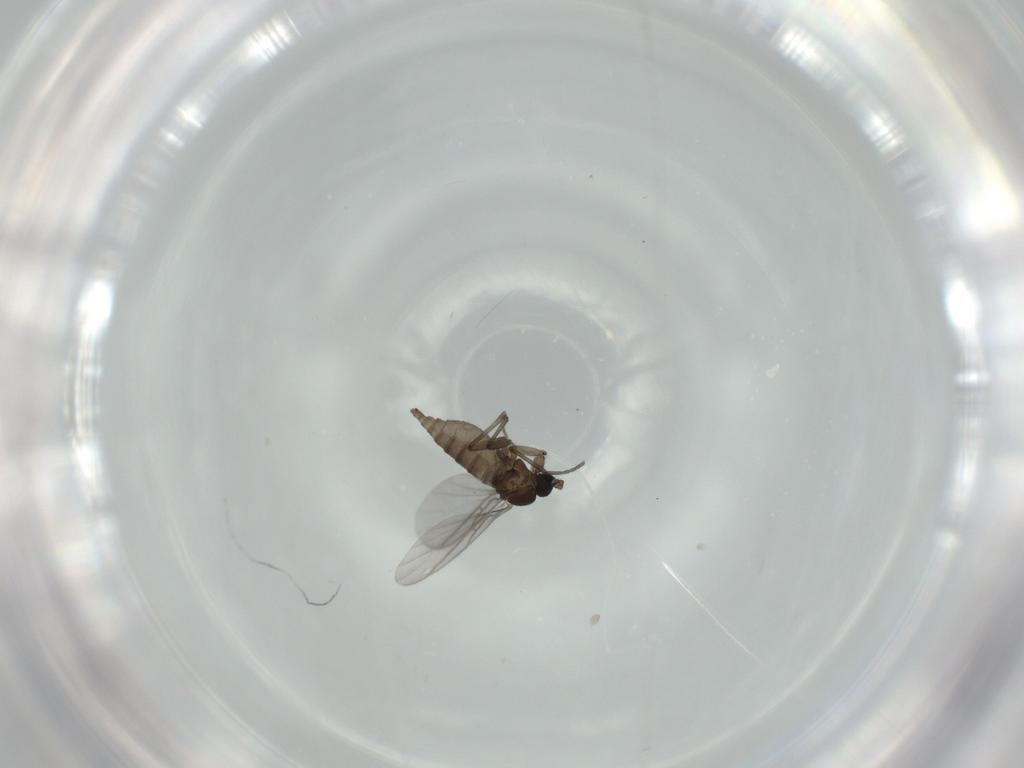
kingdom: Animalia
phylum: Arthropoda
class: Insecta
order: Diptera
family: Sciaridae
